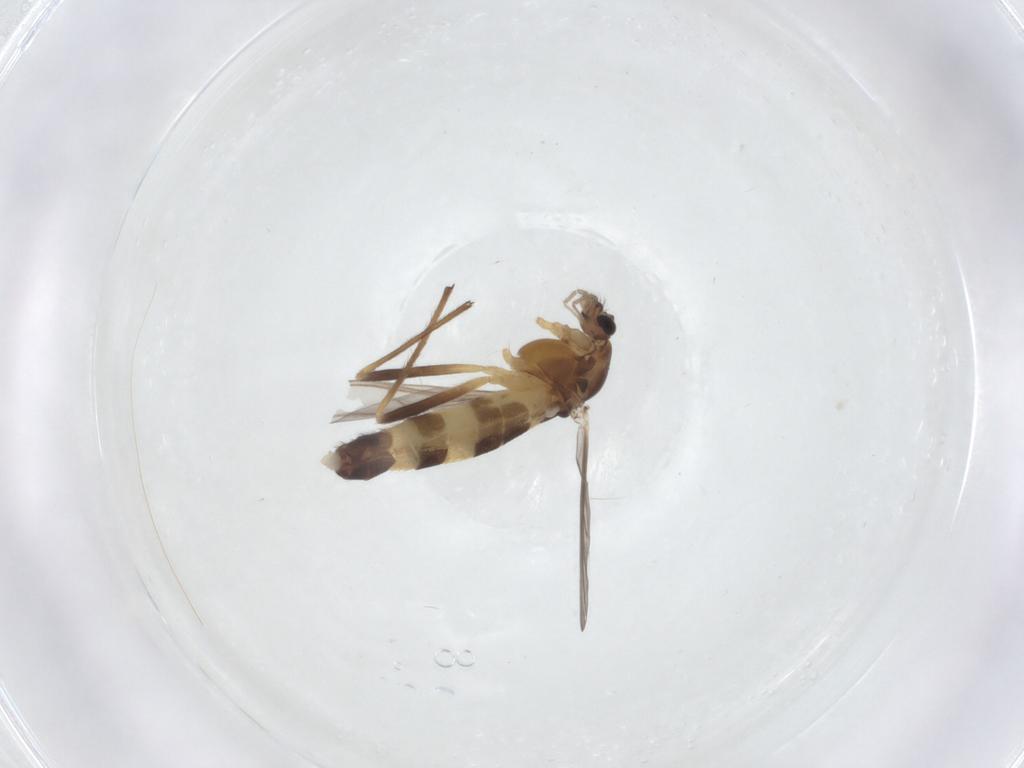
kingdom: Animalia
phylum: Arthropoda
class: Insecta
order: Diptera
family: Chironomidae
